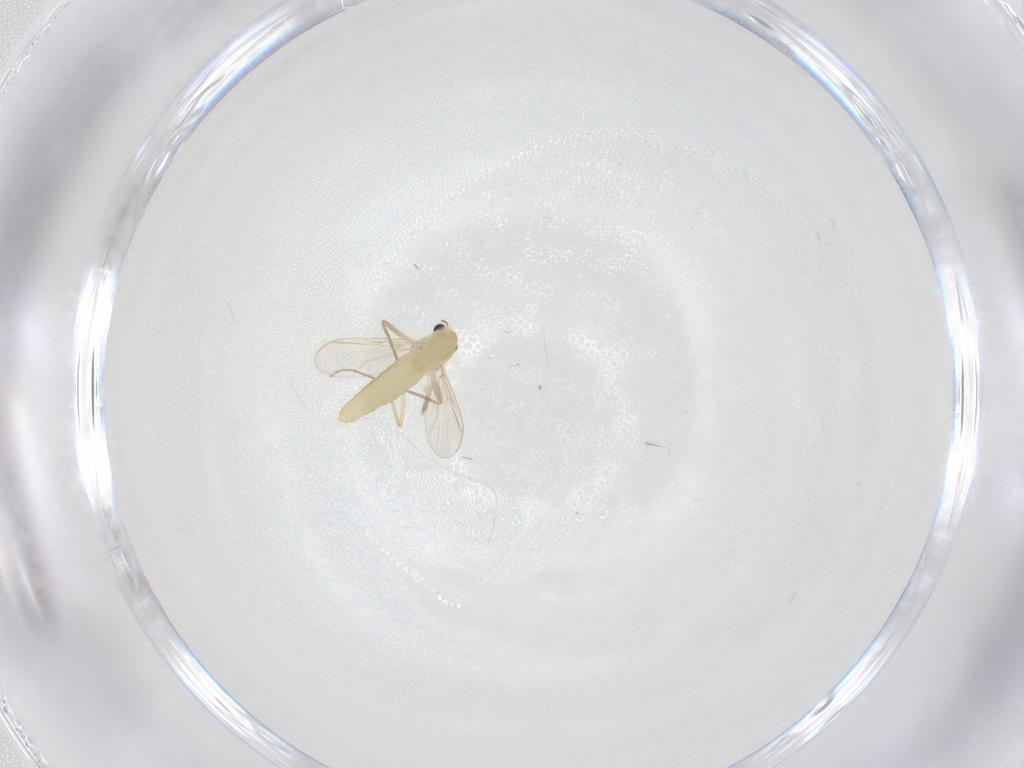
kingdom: Animalia
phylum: Arthropoda
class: Insecta
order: Diptera
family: Chironomidae
